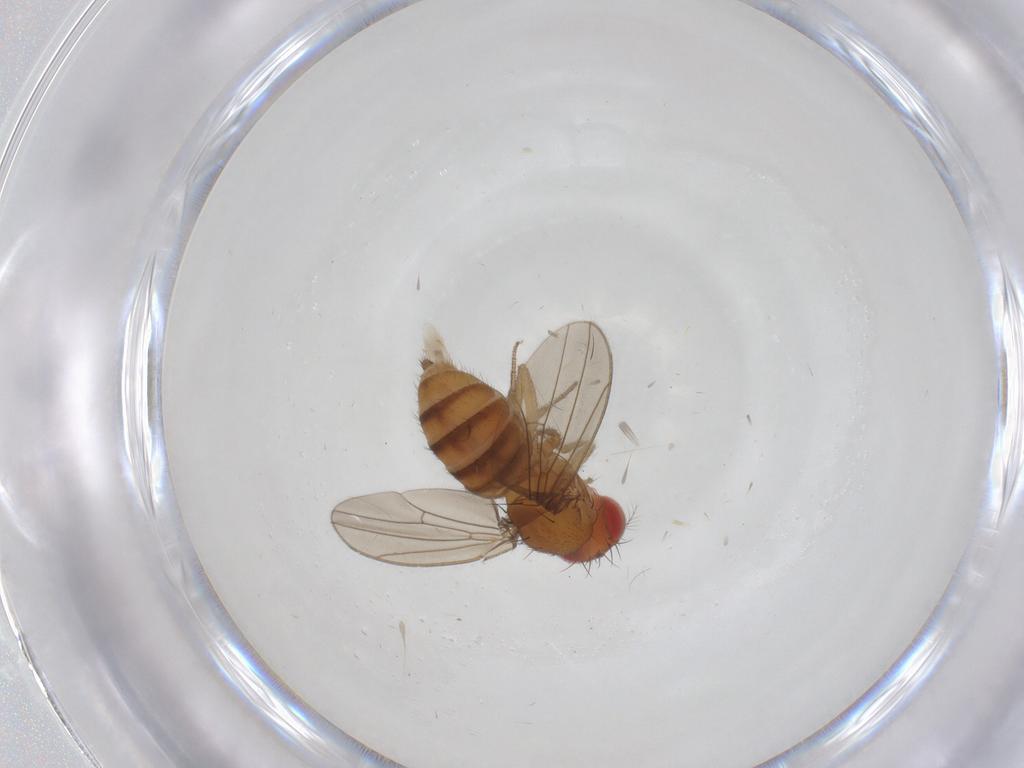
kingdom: Animalia
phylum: Arthropoda
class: Insecta
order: Diptera
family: Drosophilidae
